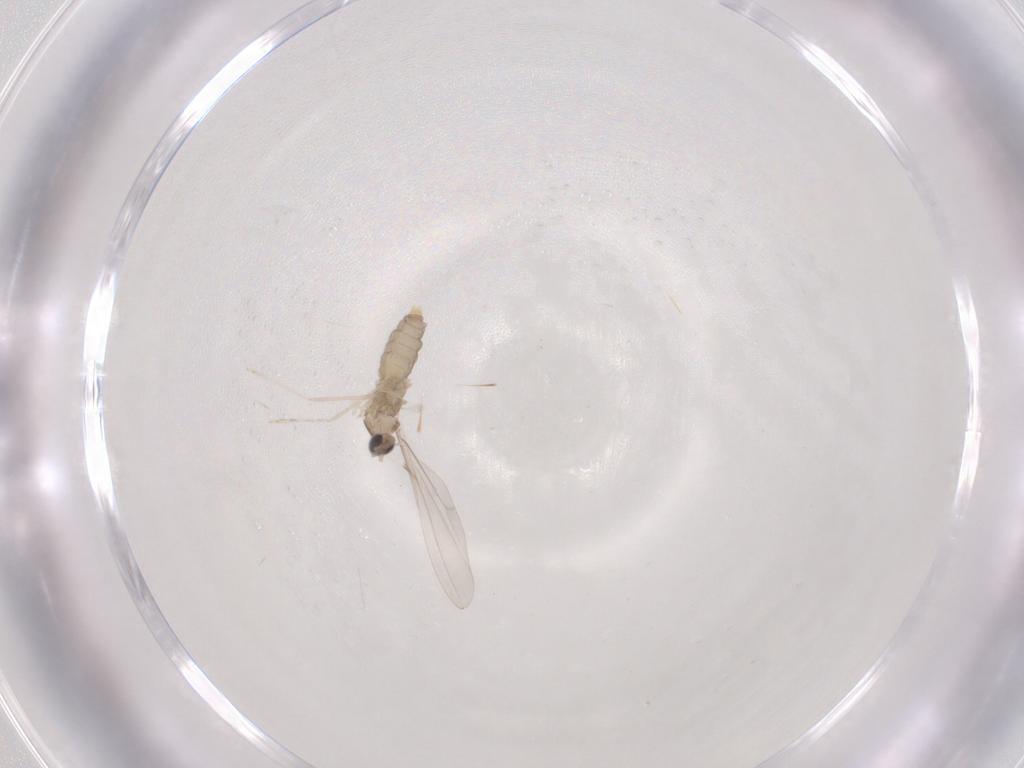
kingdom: Animalia
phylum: Arthropoda
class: Insecta
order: Diptera
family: Cecidomyiidae
